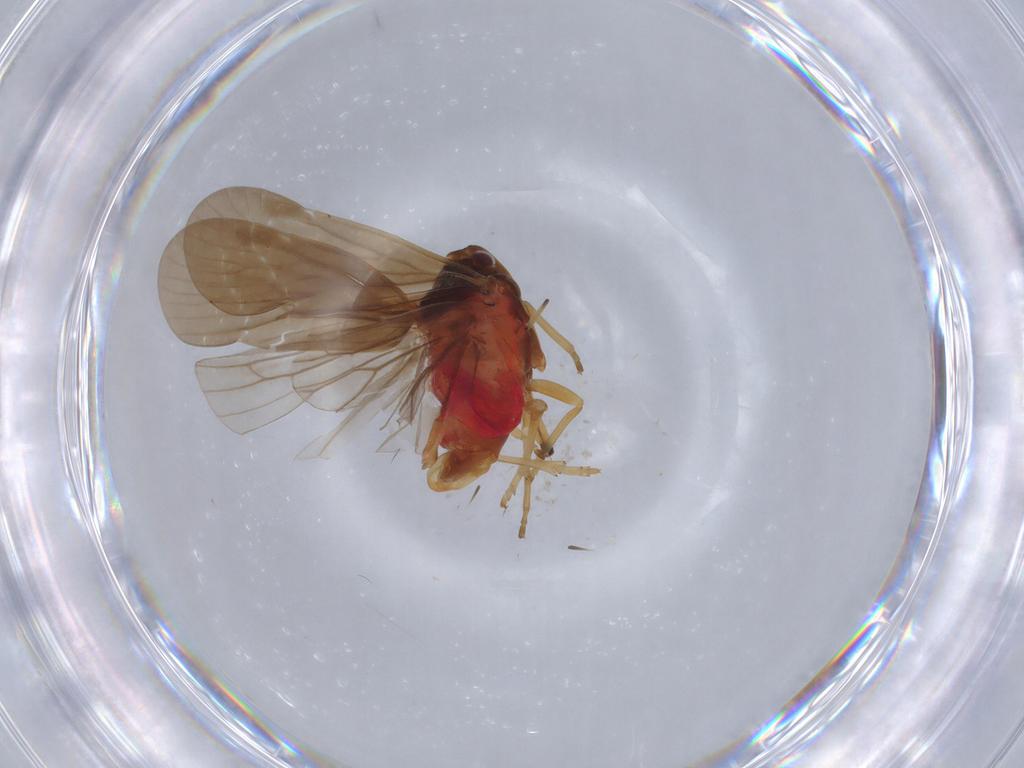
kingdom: Animalia
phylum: Arthropoda
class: Insecta
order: Hemiptera
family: Derbidae
